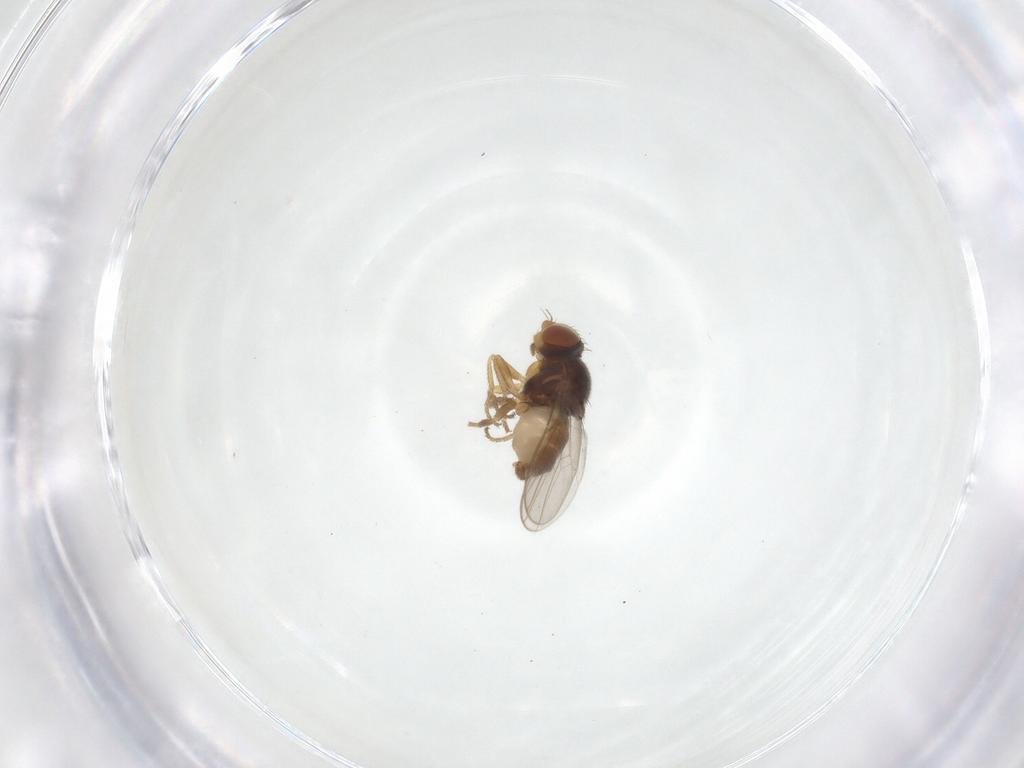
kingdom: Animalia
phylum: Arthropoda
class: Insecta
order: Diptera
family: Chloropidae
